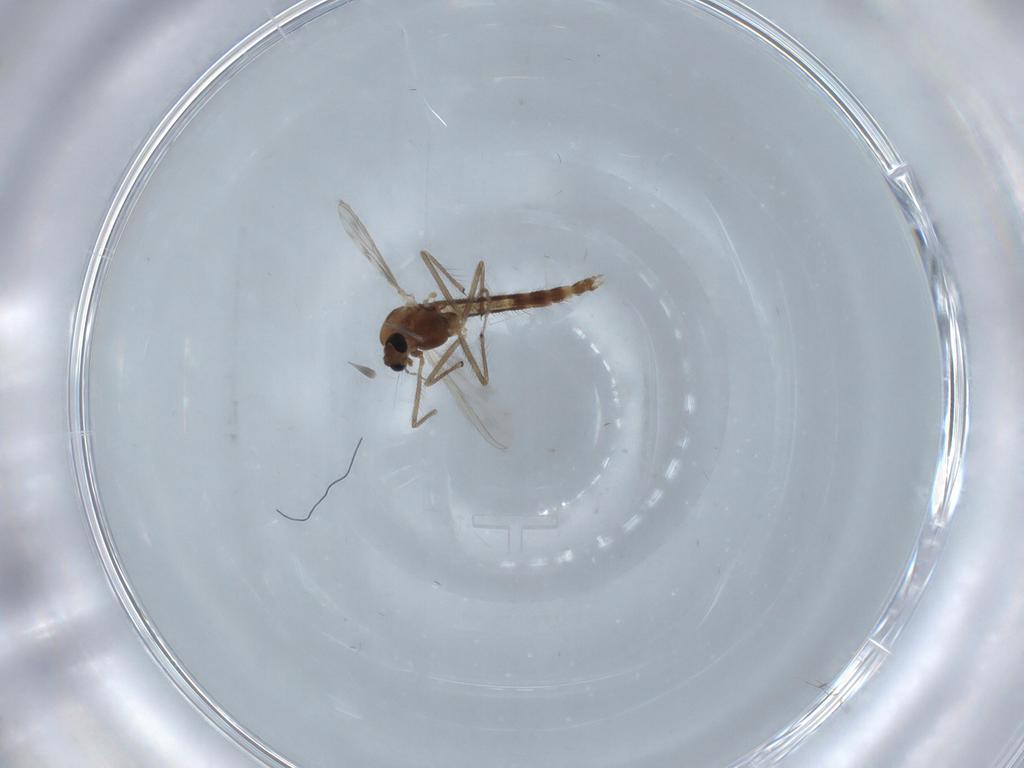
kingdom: Animalia
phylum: Arthropoda
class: Insecta
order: Diptera
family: Chironomidae
